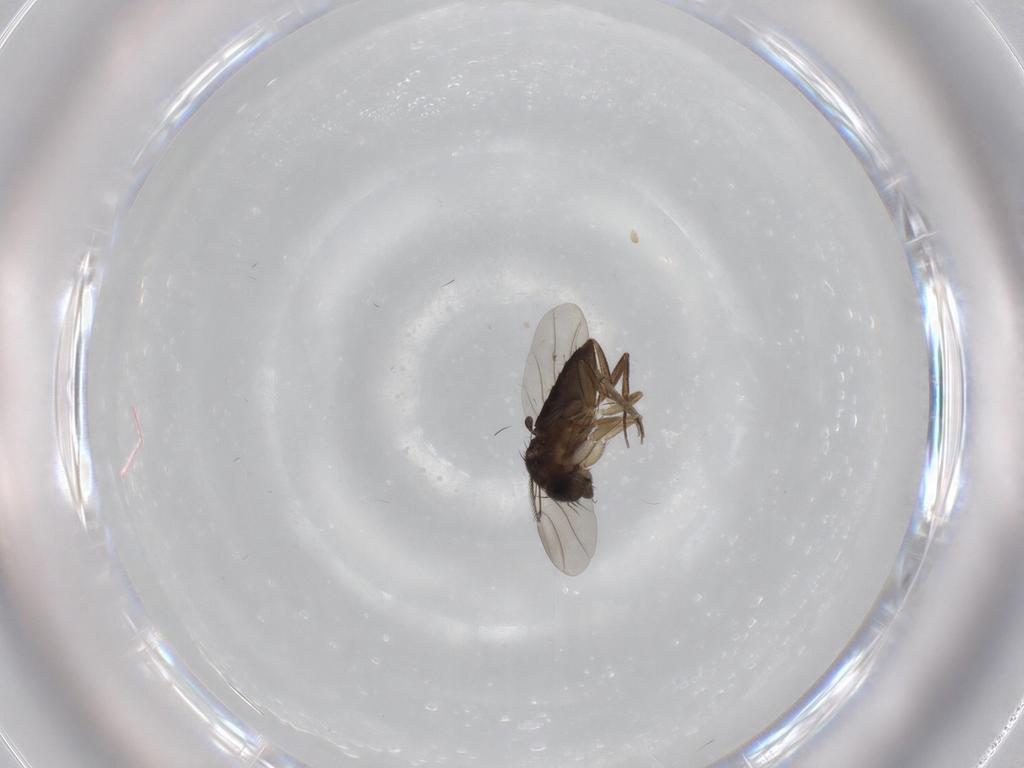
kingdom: Animalia
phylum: Arthropoda
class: Insecta
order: Diptera
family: Phoridae
